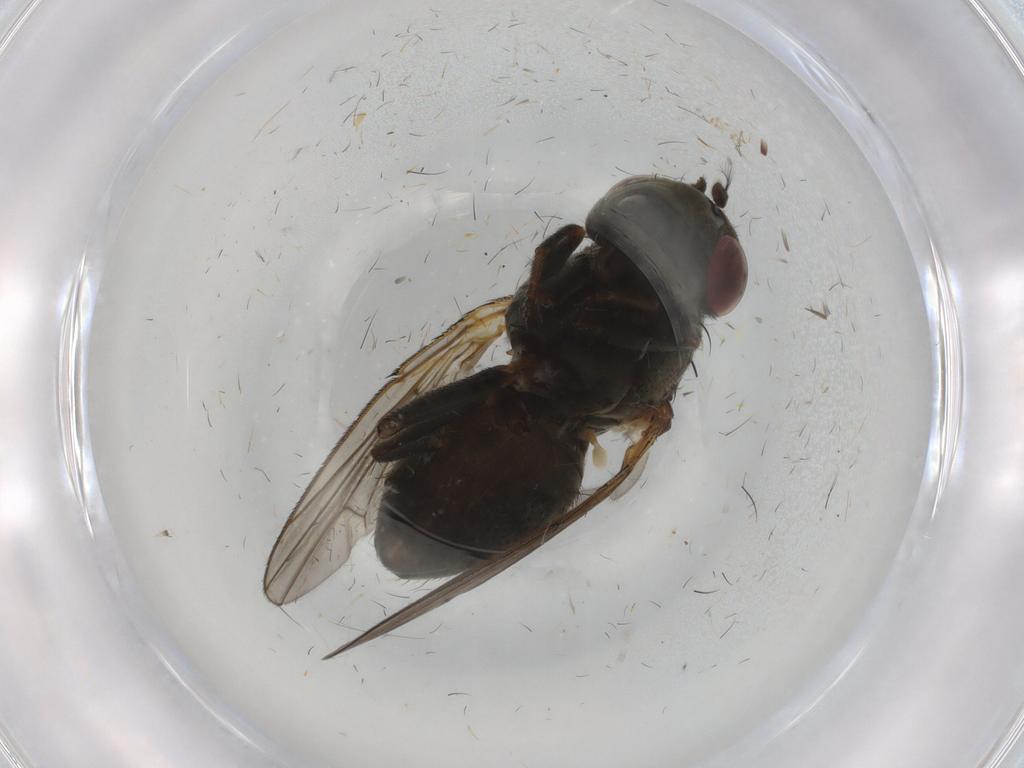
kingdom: Animalia
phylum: Arthropoda
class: Insecta
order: Diptera
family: Ephydridae
